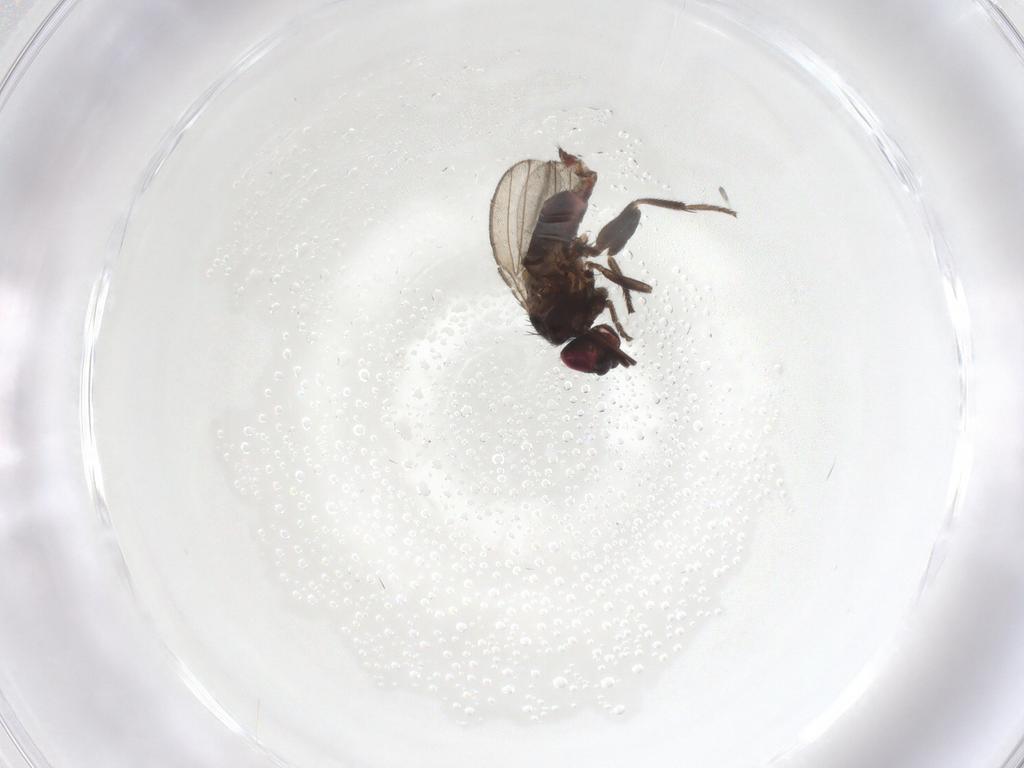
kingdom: Animalia
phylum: Arthropoda
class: Insecta
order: Diptera
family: Milichiidae
